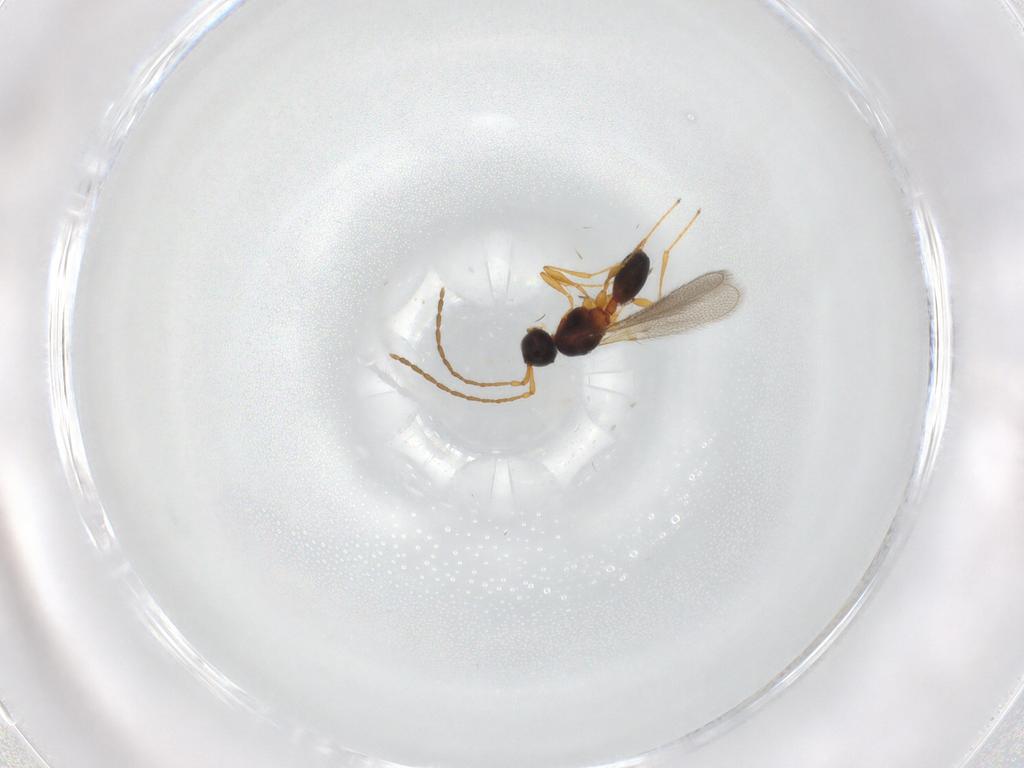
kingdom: Animalia
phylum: Arthropoda
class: Insecta
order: Hymenoptera
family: Diapriidae
